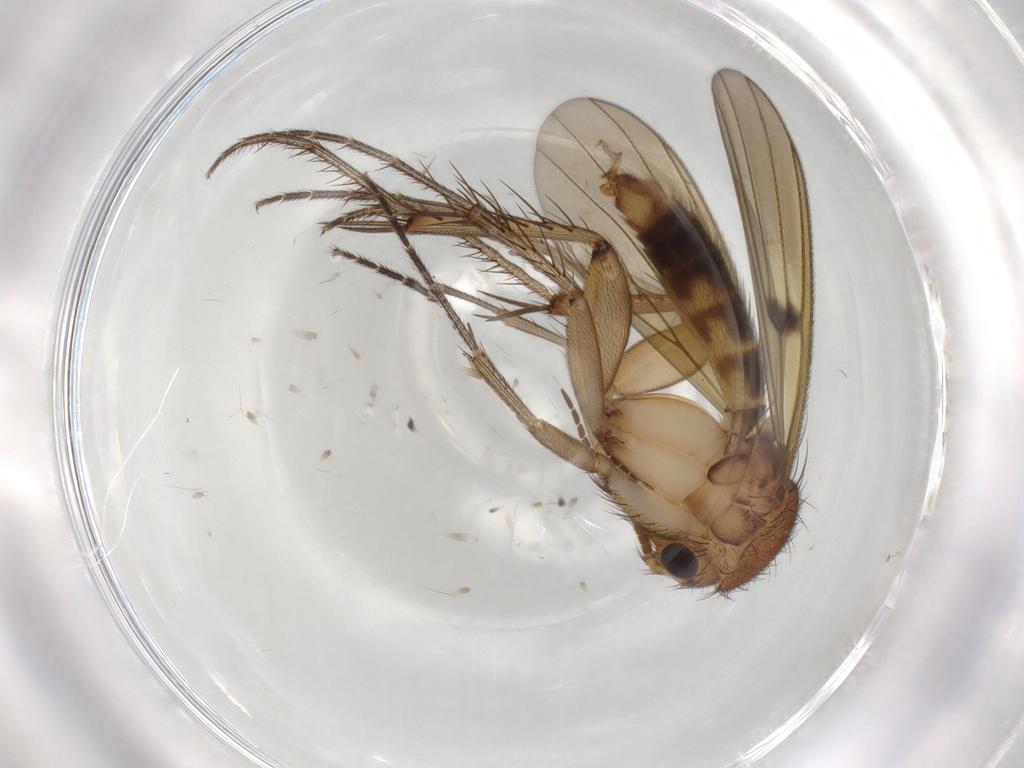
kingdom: Animalia
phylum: Arthropoda
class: Insecta
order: Diptera
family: Phoridae
